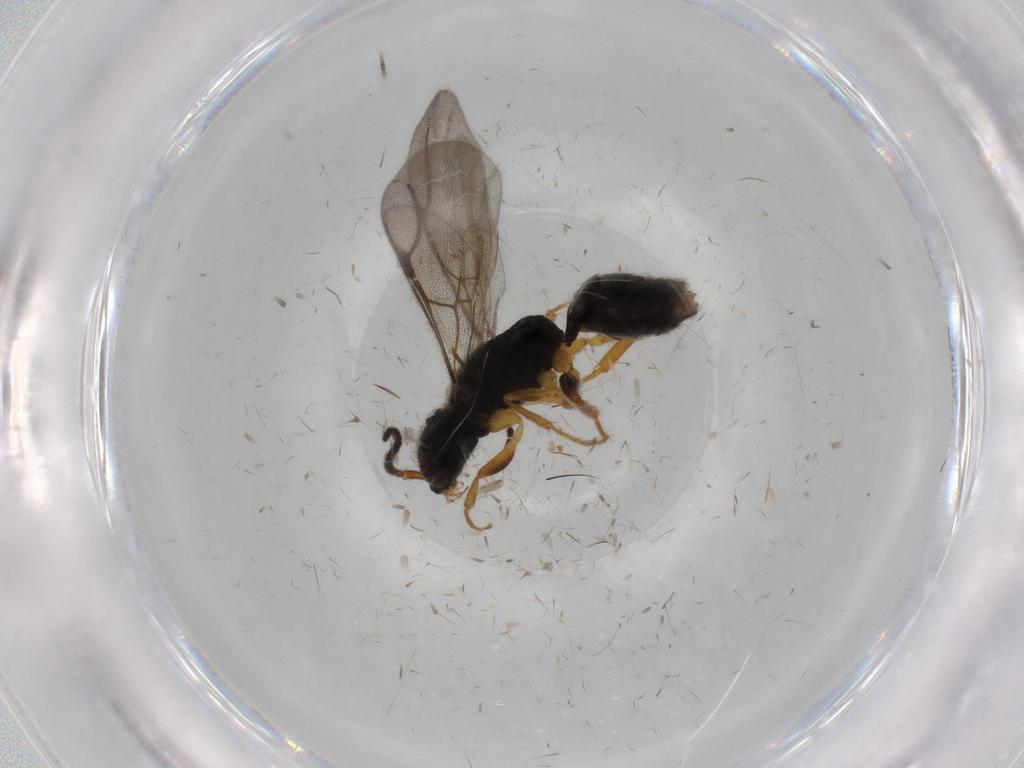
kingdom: Animalia
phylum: Arthropoda
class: Insecta
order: Hymenoptera
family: Bethylidae
